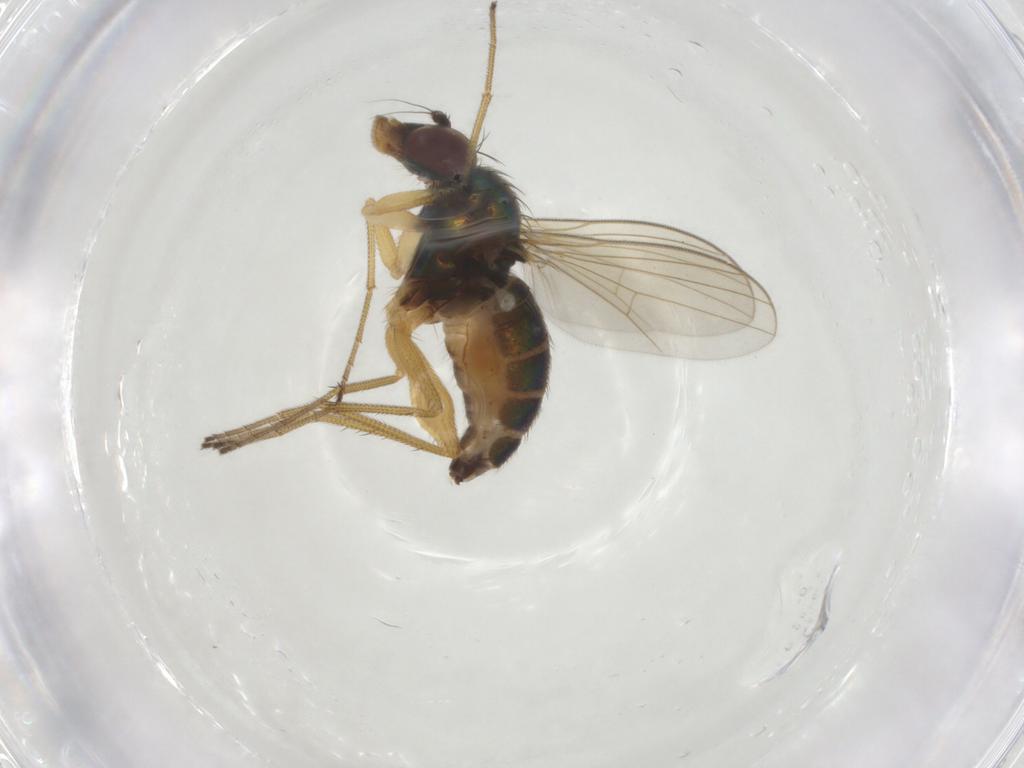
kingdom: Animalia
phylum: Arthropoda
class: Insecta
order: Diptera
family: Dolichopodidae
